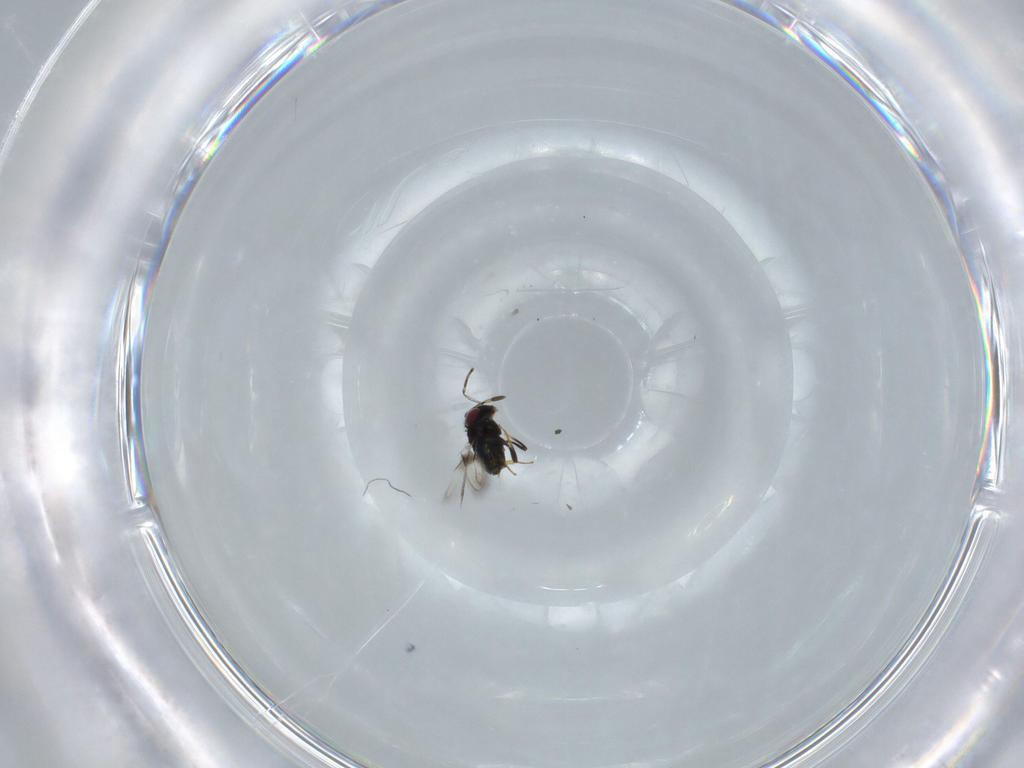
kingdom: Animalia
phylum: Arthropoda
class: Insecta
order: Hymenoptera
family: Azotidae
